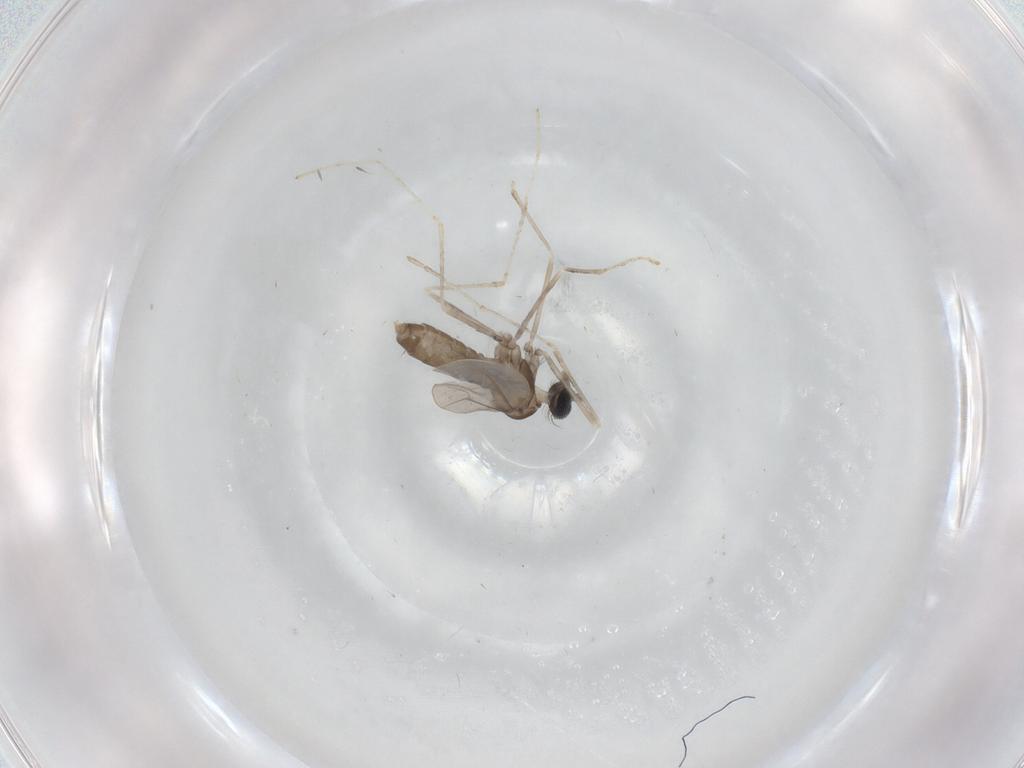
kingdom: Animalia
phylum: Arthropoda
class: Insecta
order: Diptera
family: Cecidomyiidae
